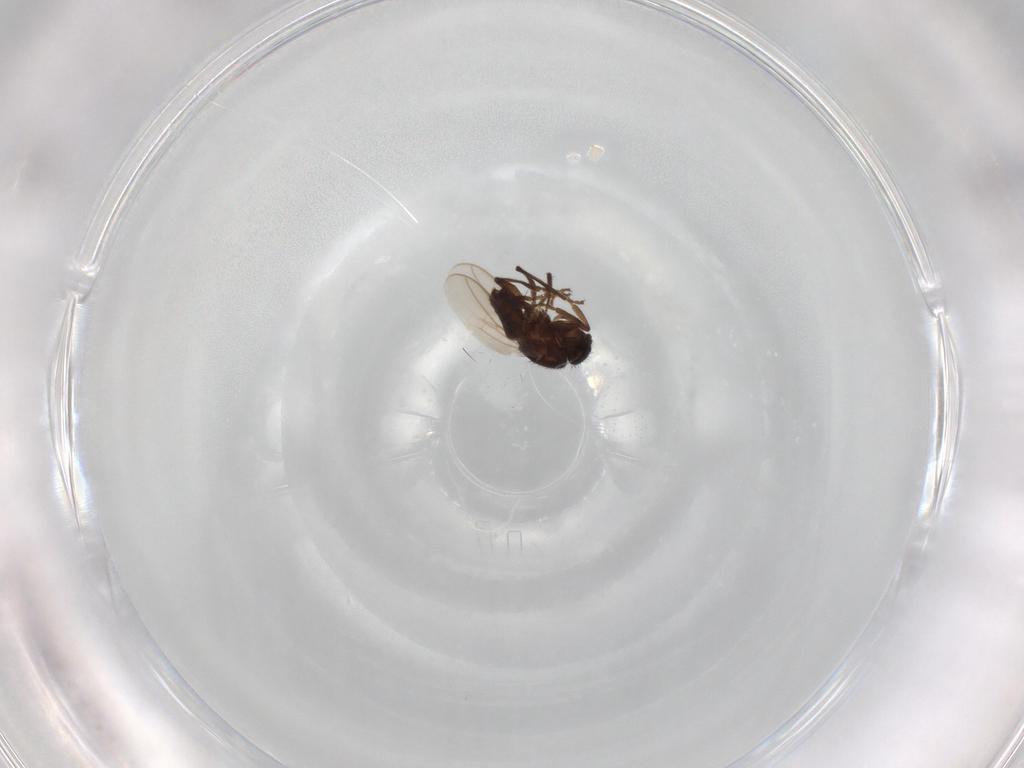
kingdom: Animalia
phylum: Arthropoda
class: Insecta
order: Diptera
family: Sphaeroceridae
